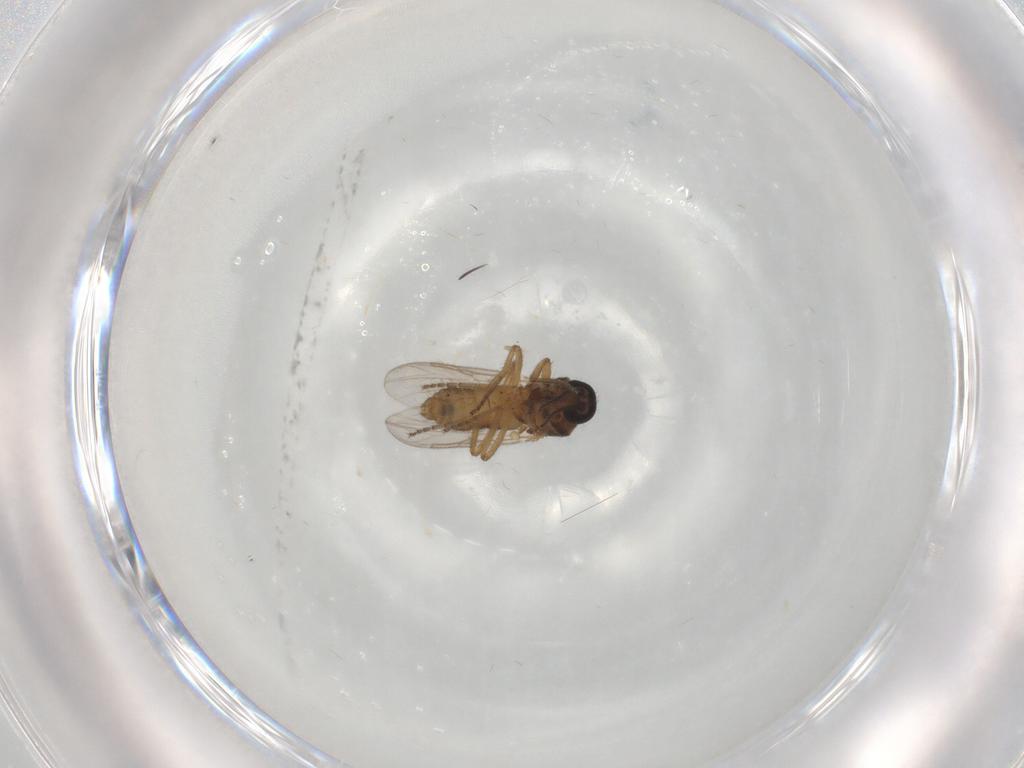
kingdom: Animalia
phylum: Arthropoda
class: Insecta
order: Diptera
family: Ceratopogonidae
